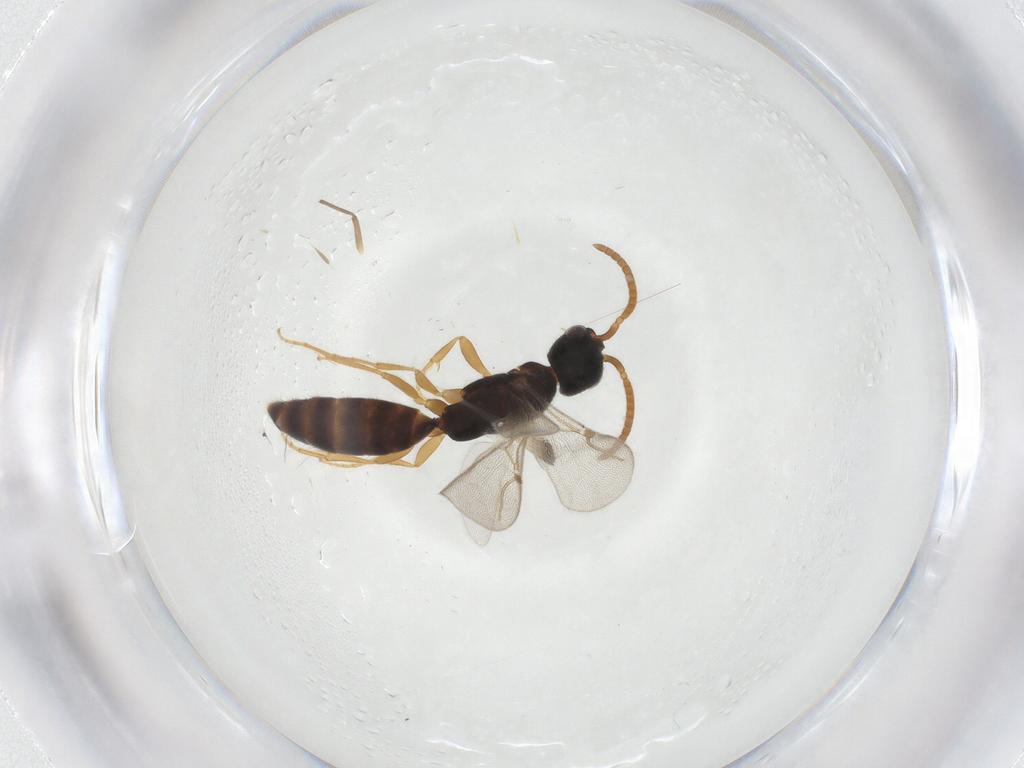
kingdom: Animalia
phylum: Arthropoda
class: Insecta
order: Hymenoptera
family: Bethylidae
